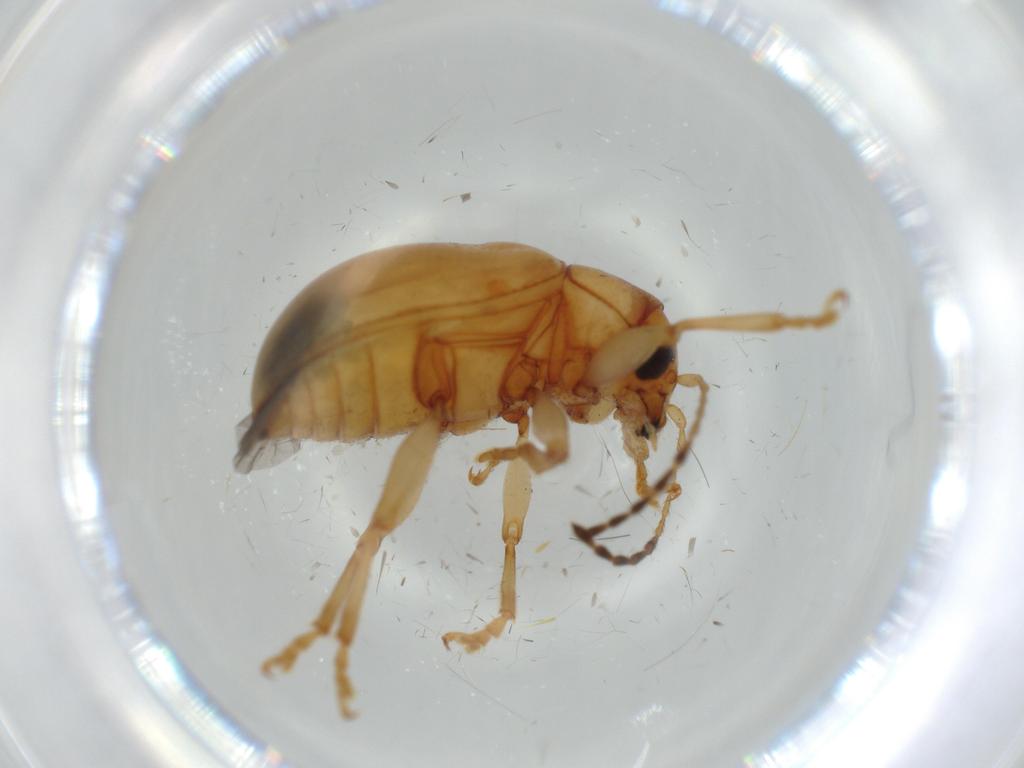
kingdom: Animalia
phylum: Arthropoda
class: Insecta
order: Coleoptera
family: Chrysomelidae
